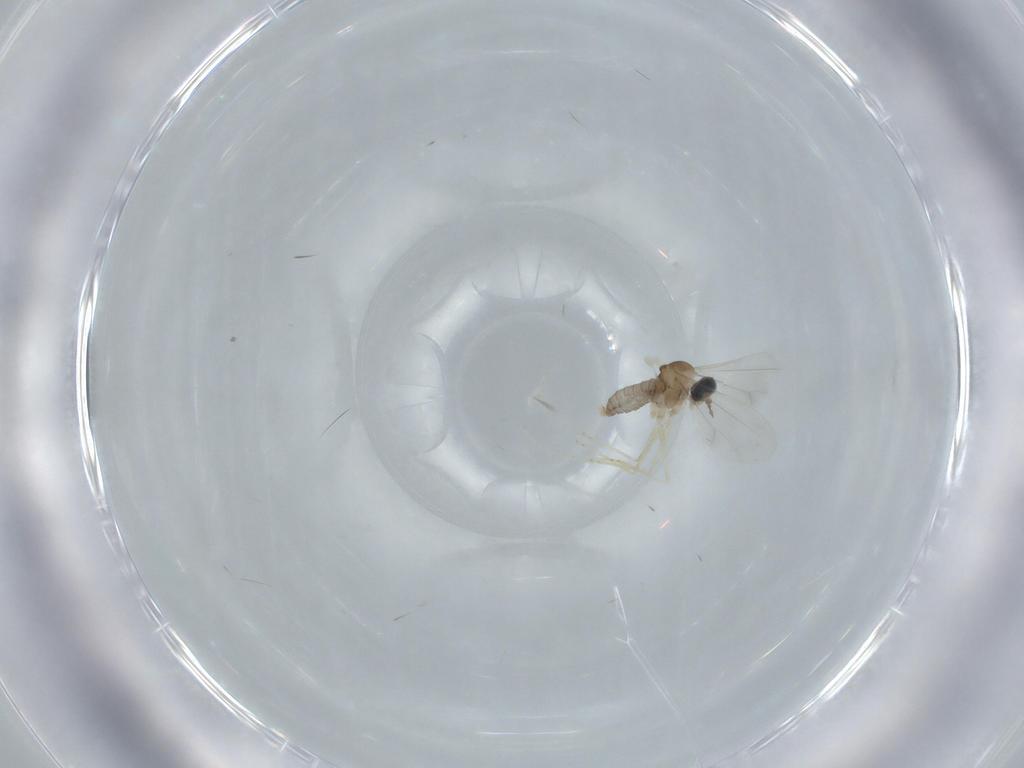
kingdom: Animalia
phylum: Arthropoda
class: Insecta
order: Diptera
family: Cecidomyiidae
